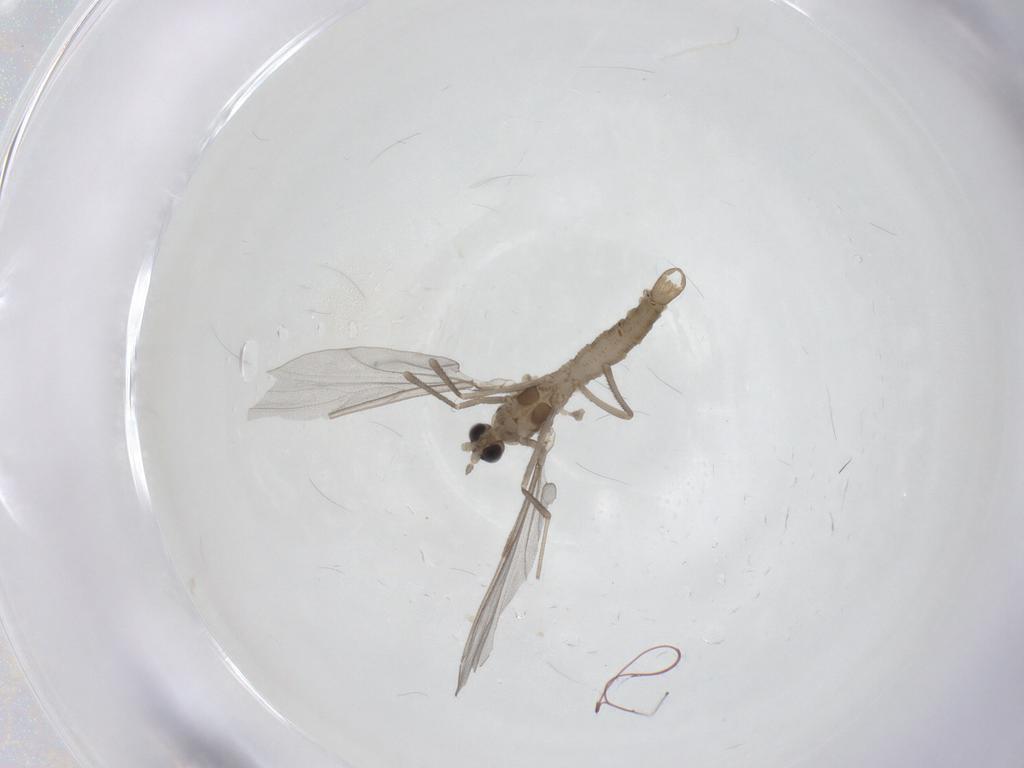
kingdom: Animalia
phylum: Arthropoda
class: Insecta
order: Diptera
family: Cecidomyiidae
